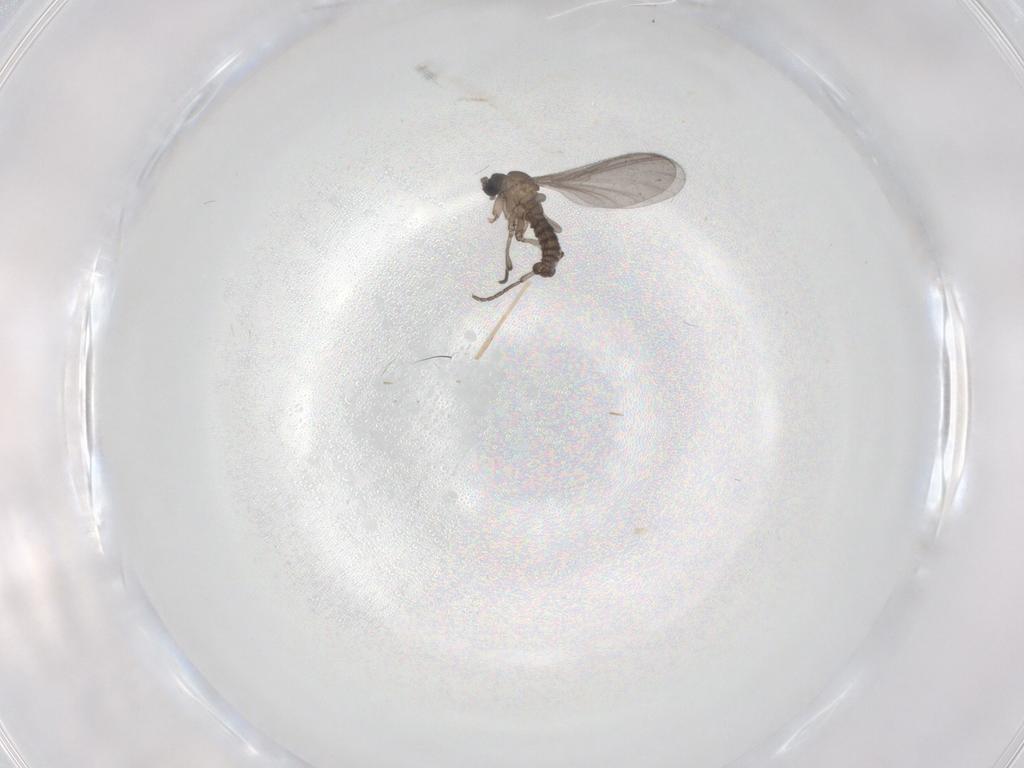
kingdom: Animalia
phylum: Arthropoda
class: Insecta
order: Diptera
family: Sciaridae
